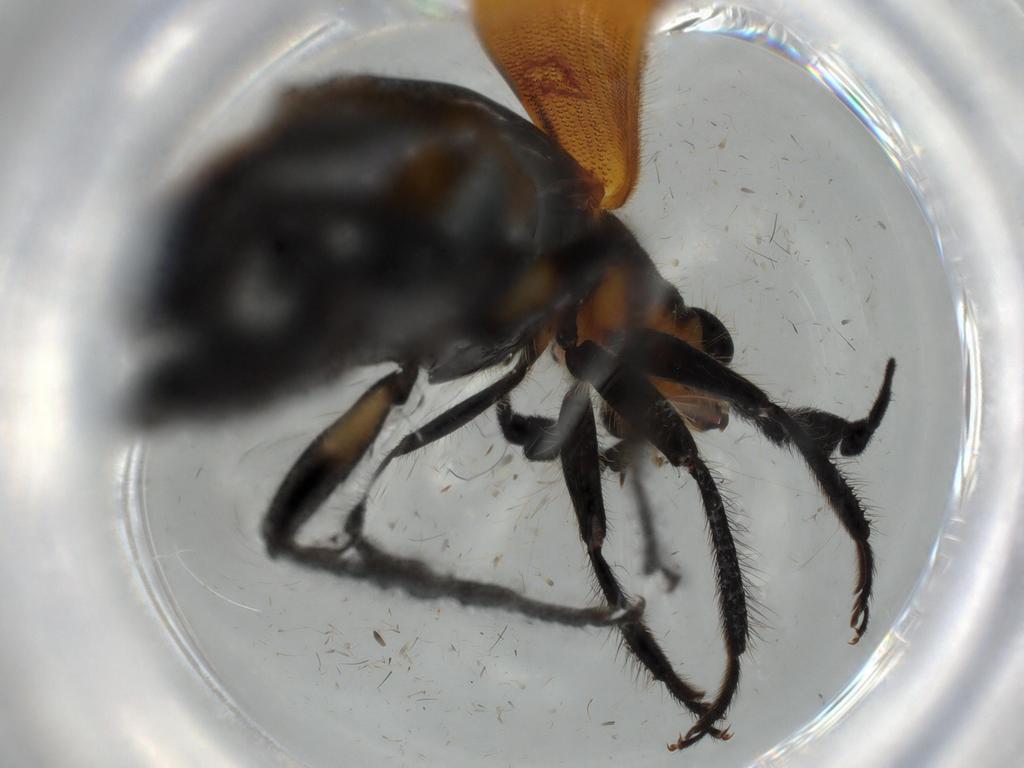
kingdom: Animalia
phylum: Arthropoda
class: Insecta
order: Coleoptera
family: Cleridae
